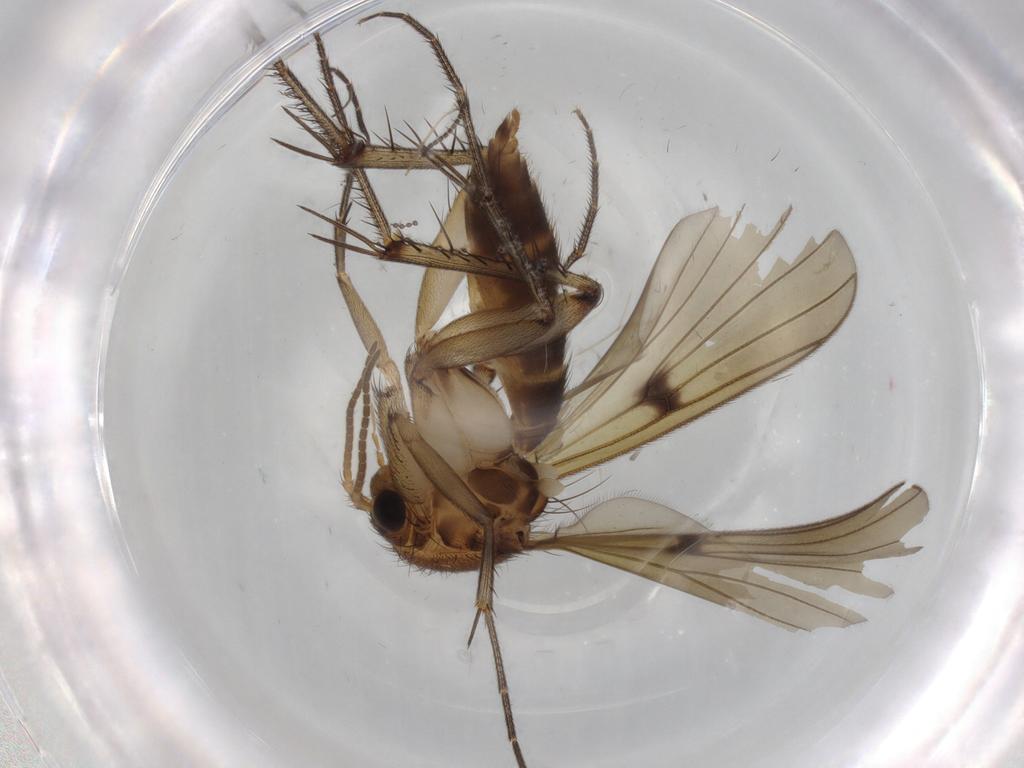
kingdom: Animalia
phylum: Arthropoda
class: Insecta
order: Diptera
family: Mycetophilidae
